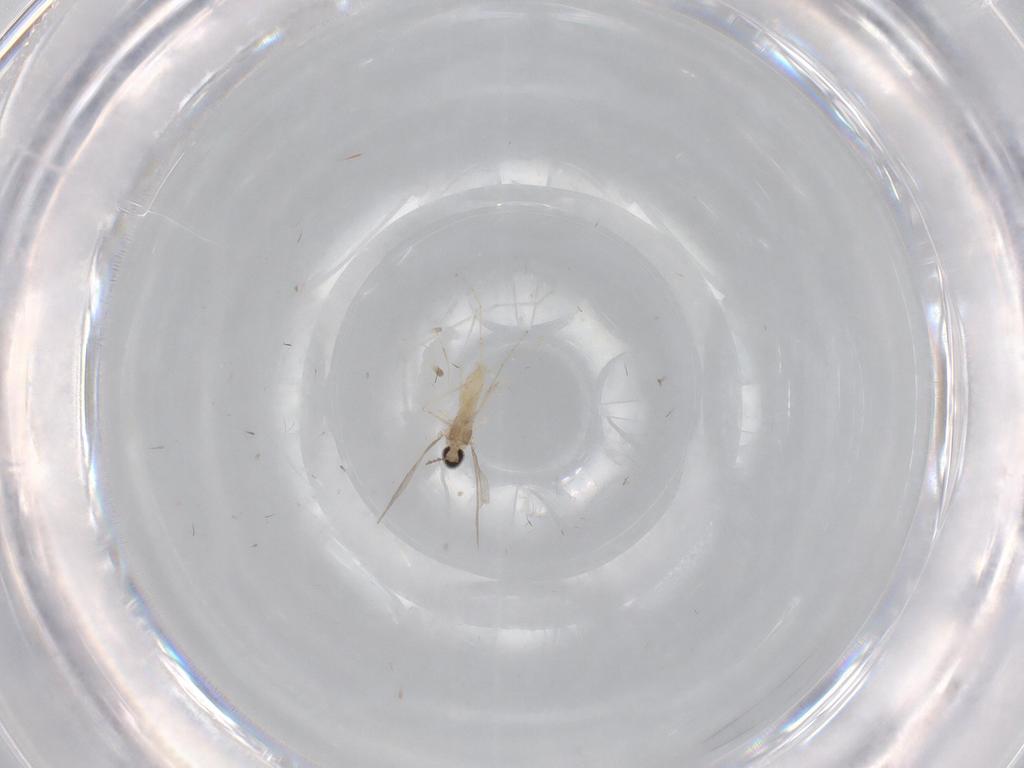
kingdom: Animalia
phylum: Arthropoda
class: Insecta
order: Diptera
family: Cecidomyiidae
